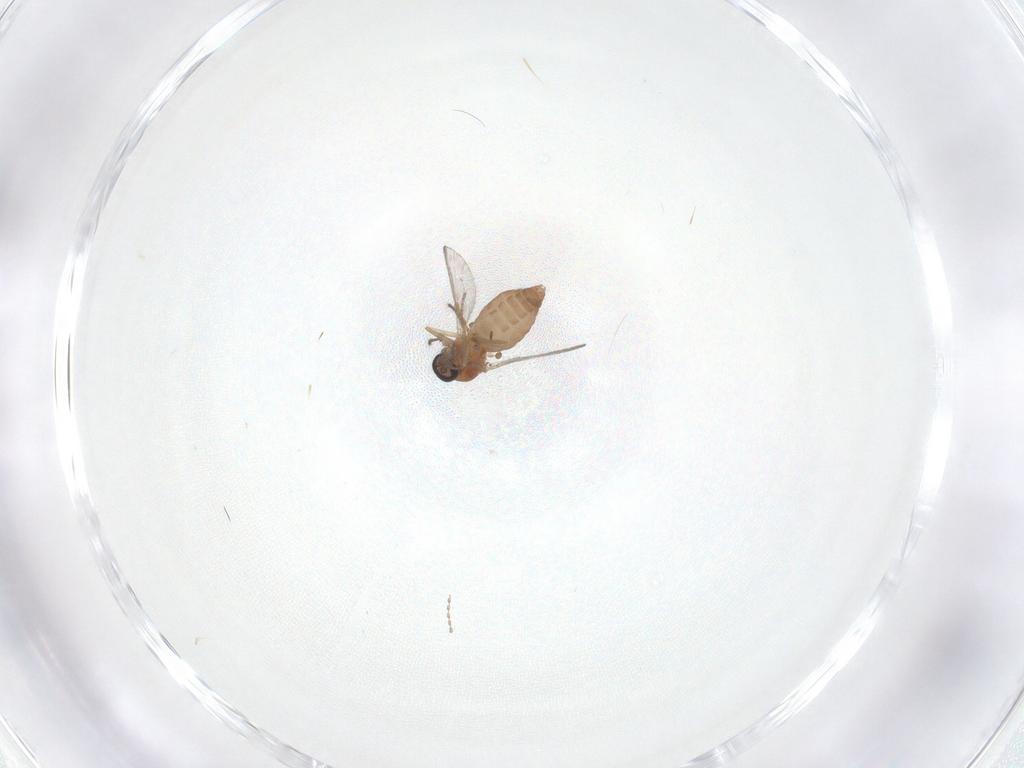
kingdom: Animalia
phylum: Arthropoda
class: Insecta
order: Diptera
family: Ceratopogonidae
